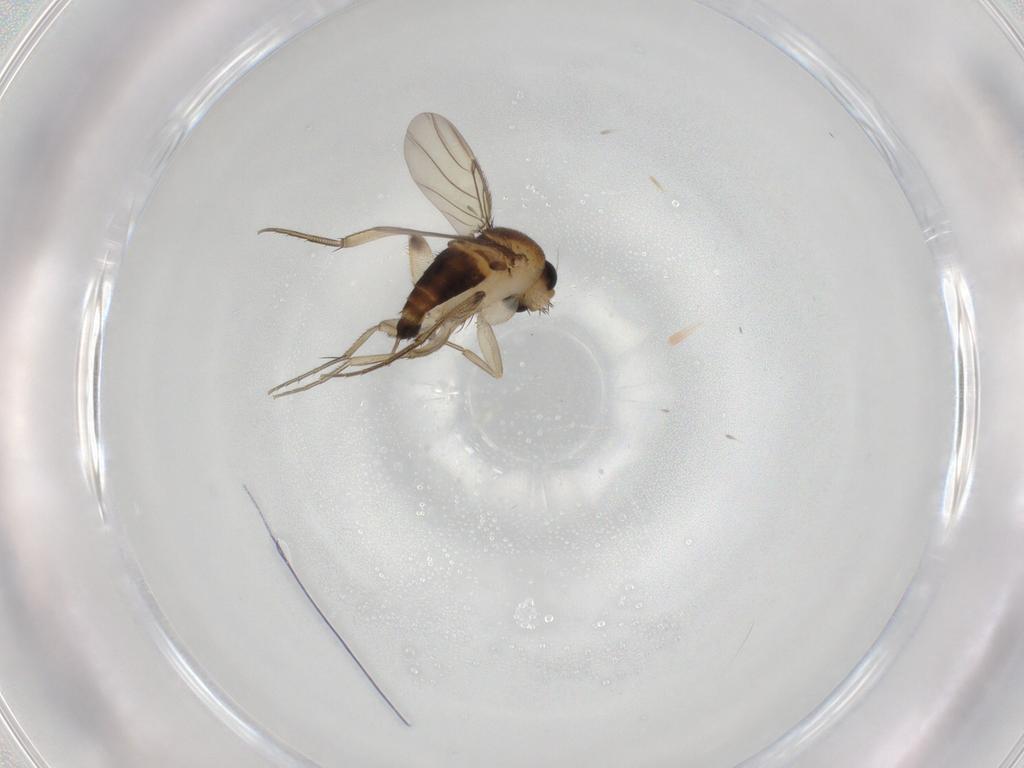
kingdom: Animalia
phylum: Arthropoda
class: Insecta
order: Diptera
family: Phoridae
